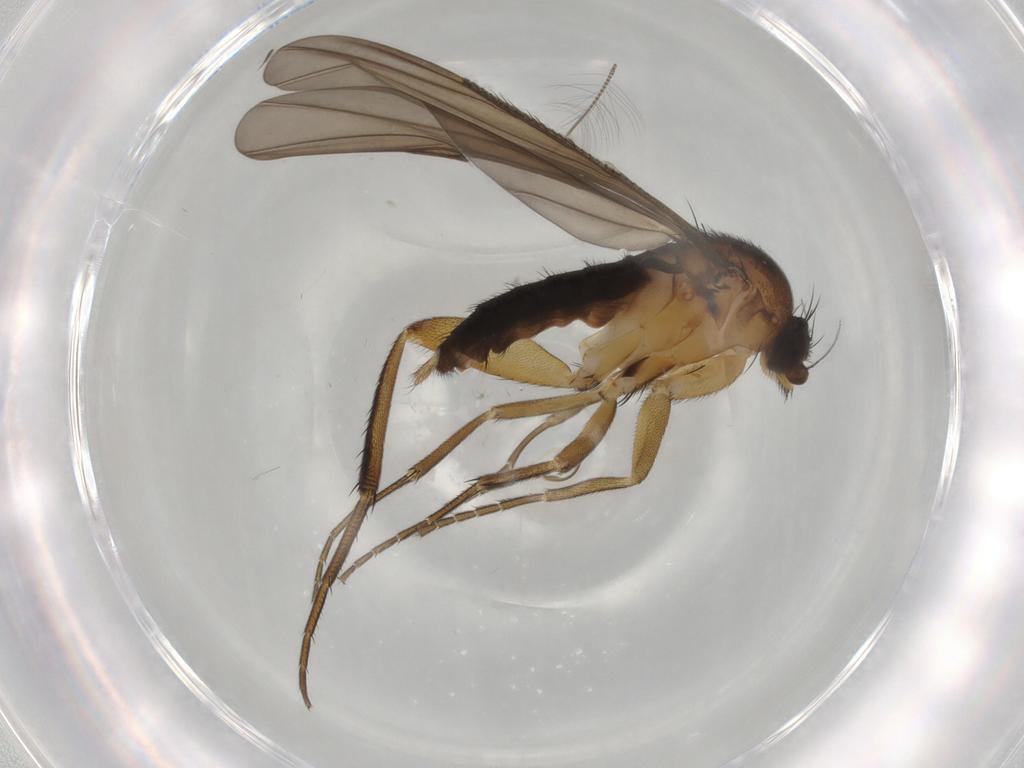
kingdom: Animalia
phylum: Arthropoda
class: Insecta
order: Diptera
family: Phoridae
